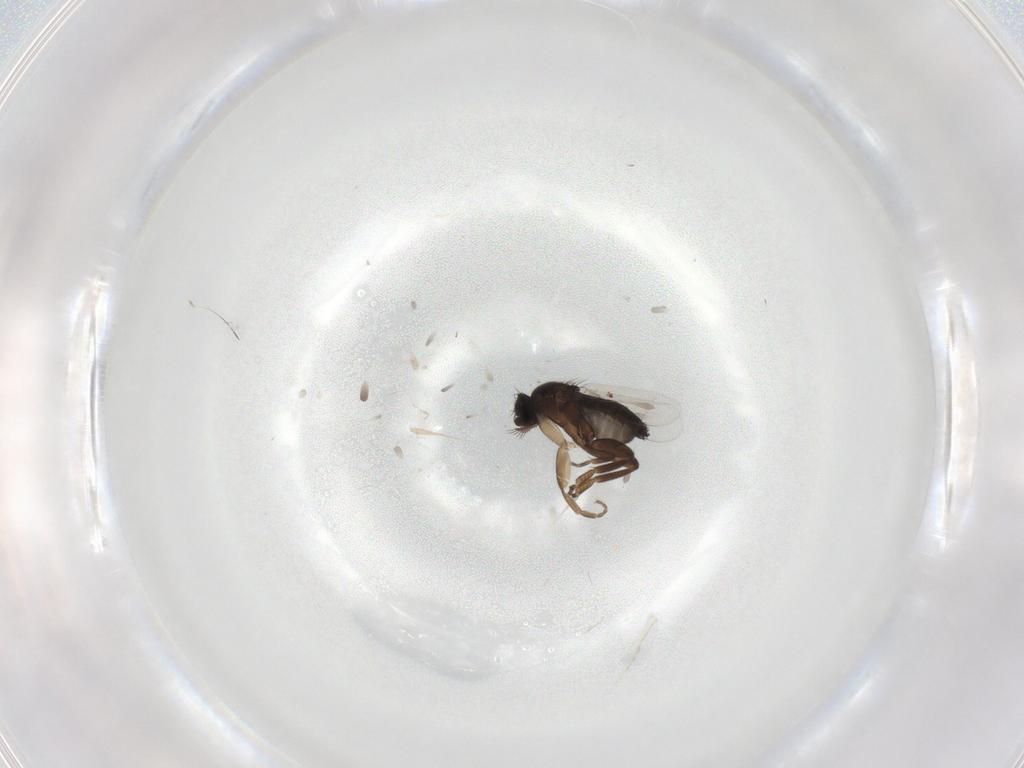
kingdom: Animalia
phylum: Arthropoda
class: Insecta
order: Diptera
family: Phoridae
